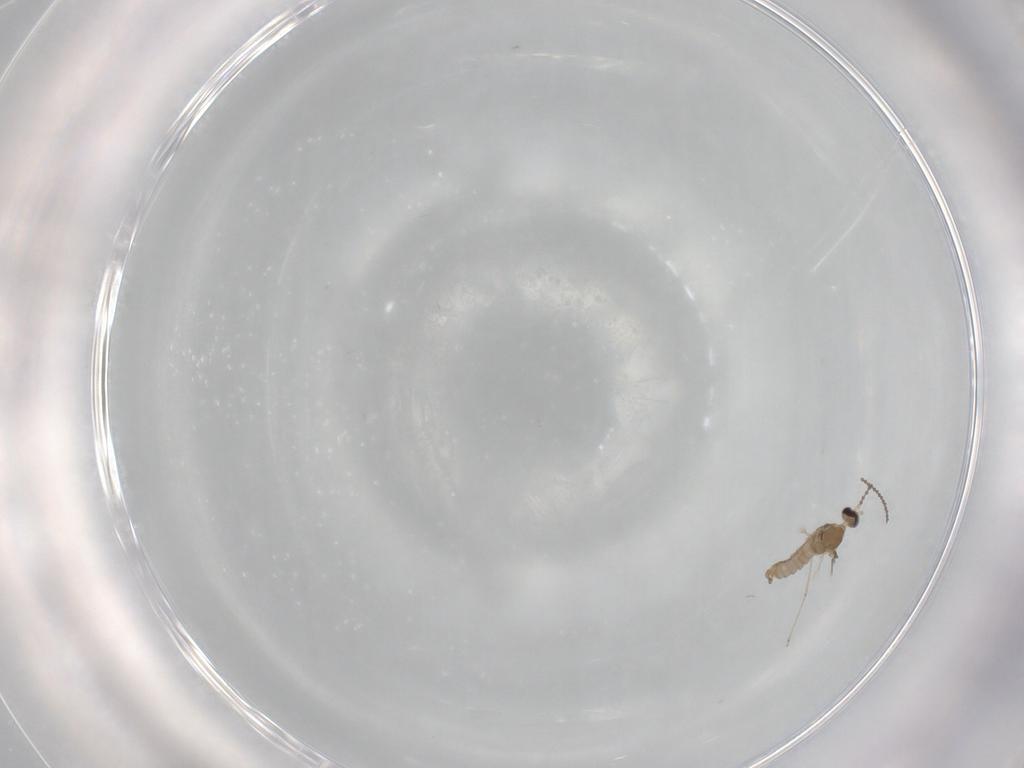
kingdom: Animalia
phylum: Arthropoda
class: Insecta
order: Diptera
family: Cecidomyiidae
